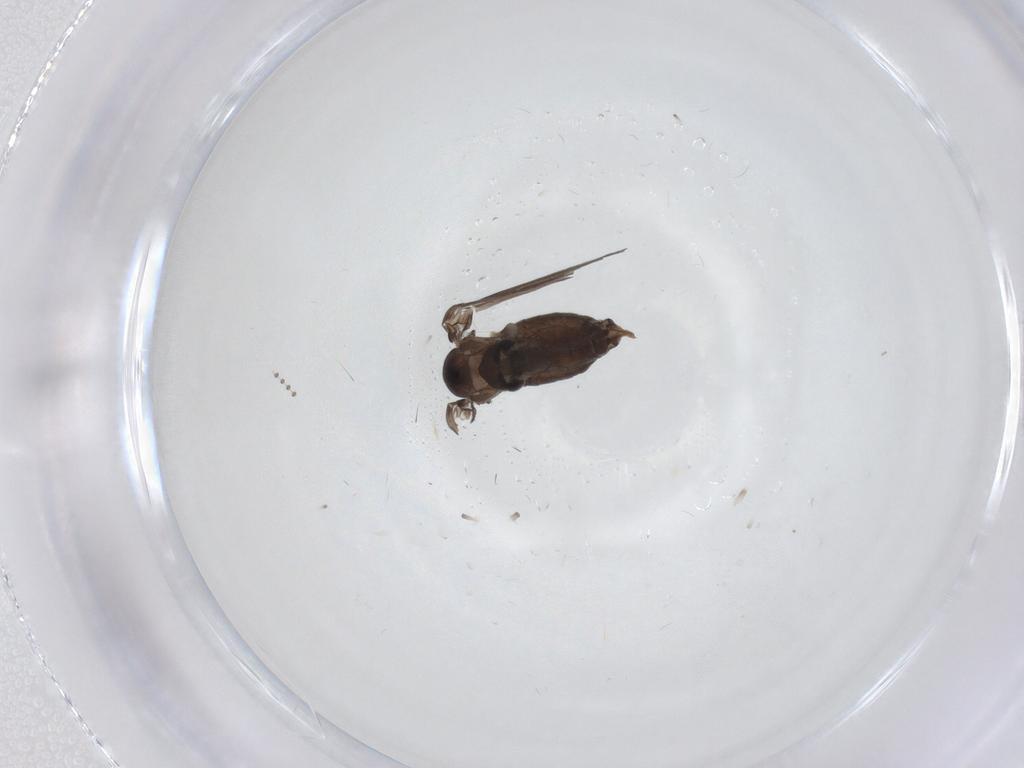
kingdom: Animalia
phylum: Arthropoda
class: Insecta
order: Diptera
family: Psychodidae
